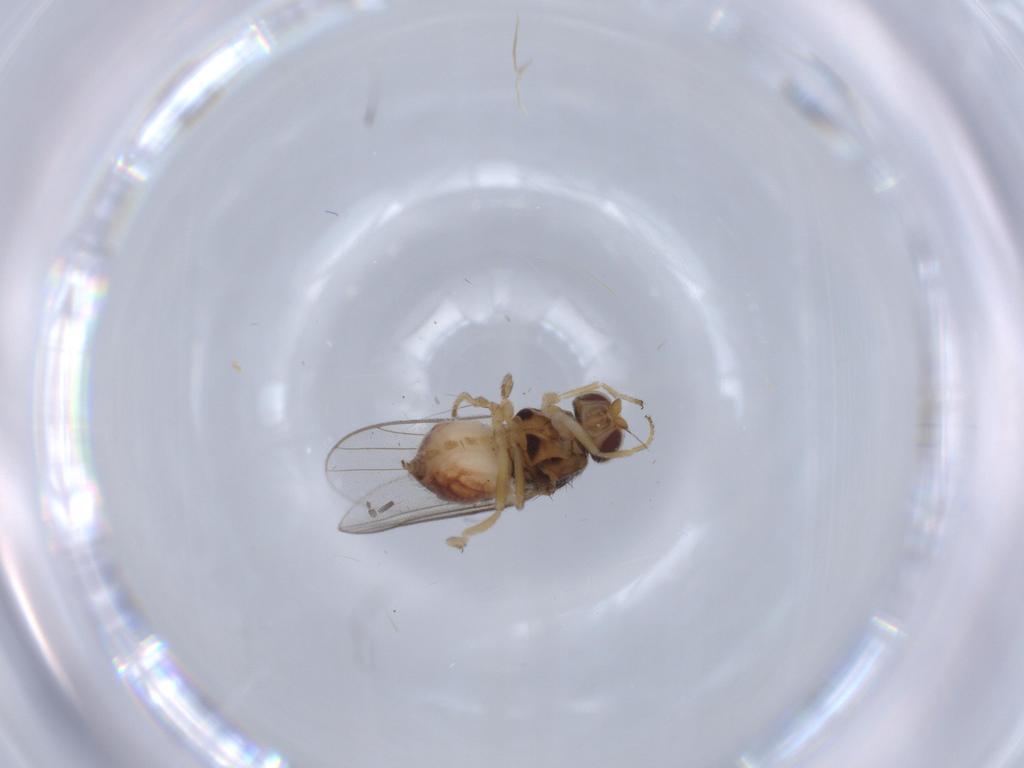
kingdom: Animalia
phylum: Arthropoda
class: Insecta
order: Diptera
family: Chloropidae
